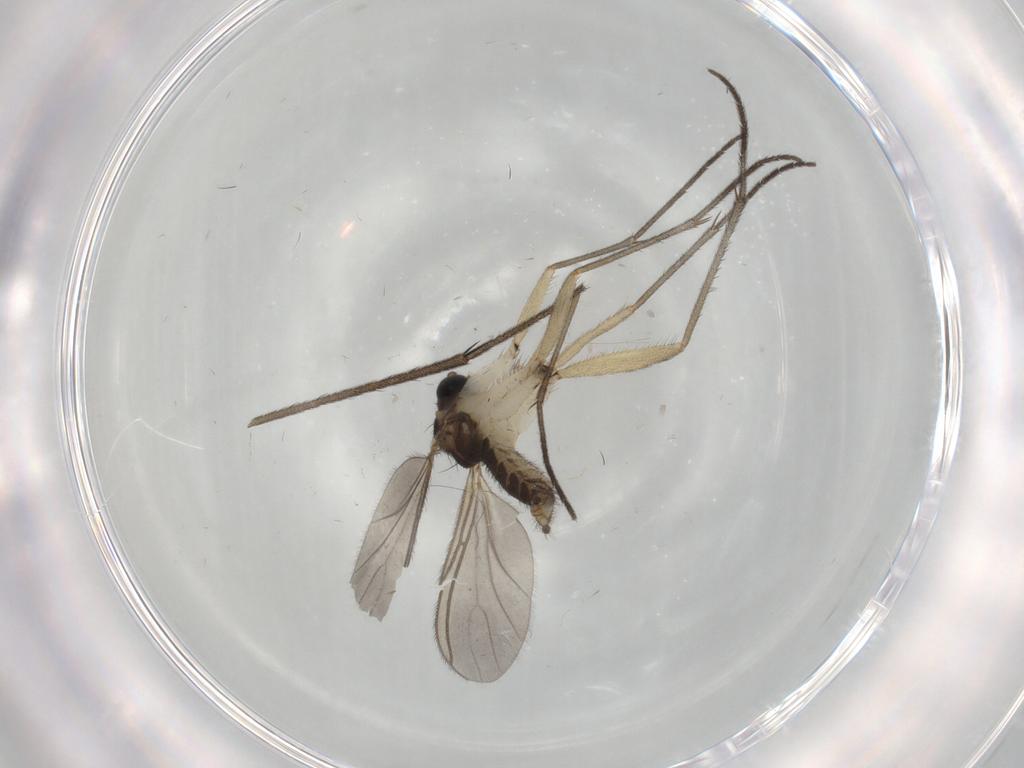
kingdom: Animalia
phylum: Arthropoda
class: Insecta
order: Diptera
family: Ditomyiidae
